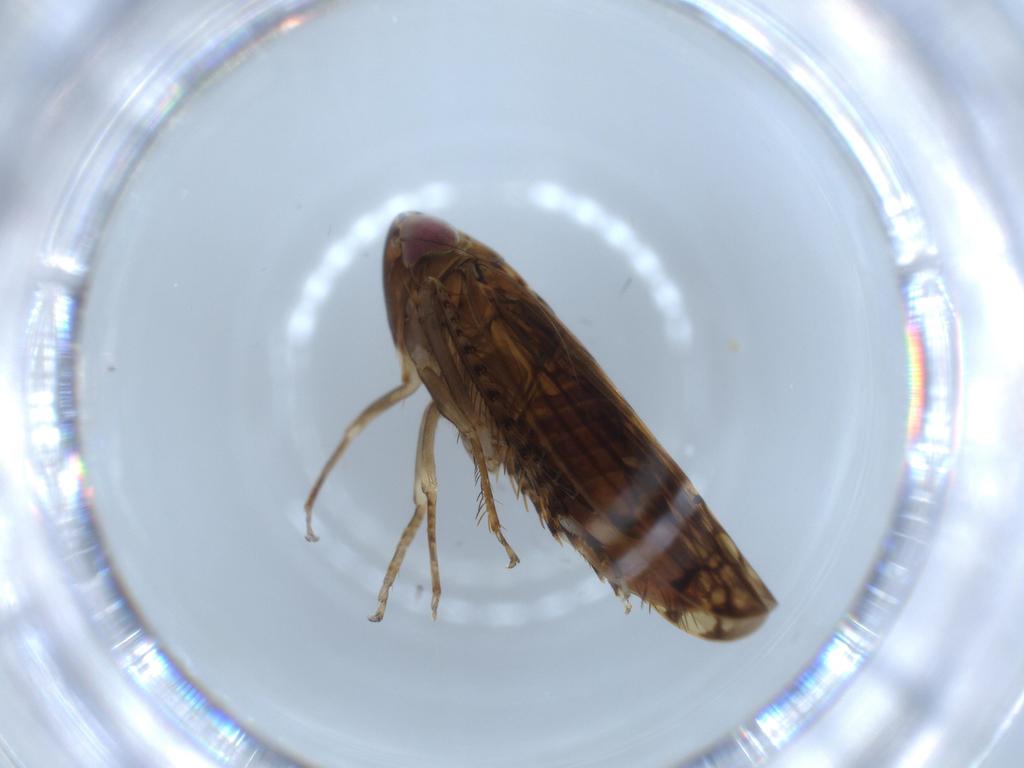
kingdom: Animalia
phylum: Arthropoda
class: Insecta
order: Hemiptera
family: Cicadellidae
